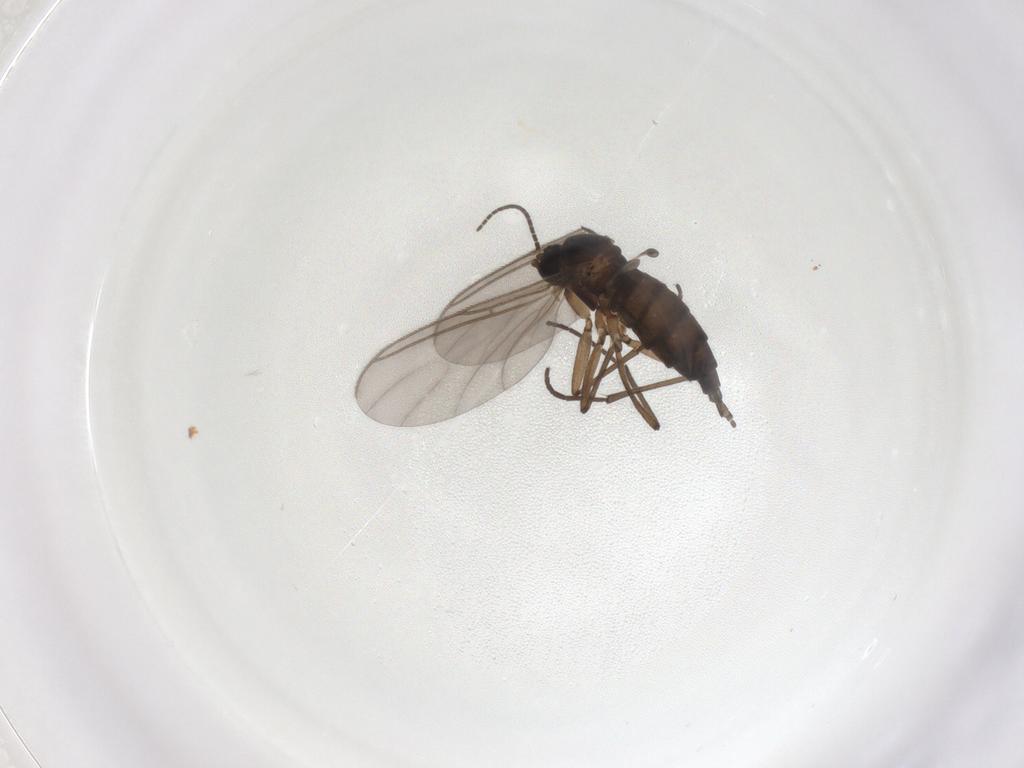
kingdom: Animalia
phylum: Arthropoda
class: Insecta
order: Diptera
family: Sciaridae
